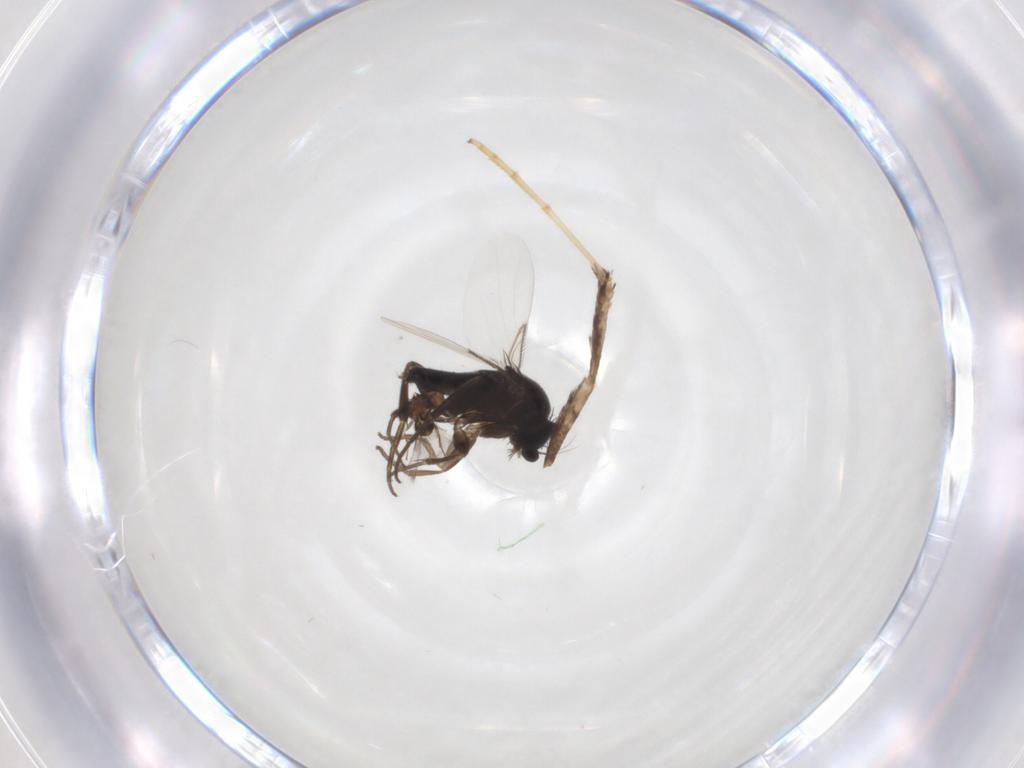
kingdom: Animalia
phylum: Arthropoda
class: Insecta
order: Diptera
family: Phoridae
